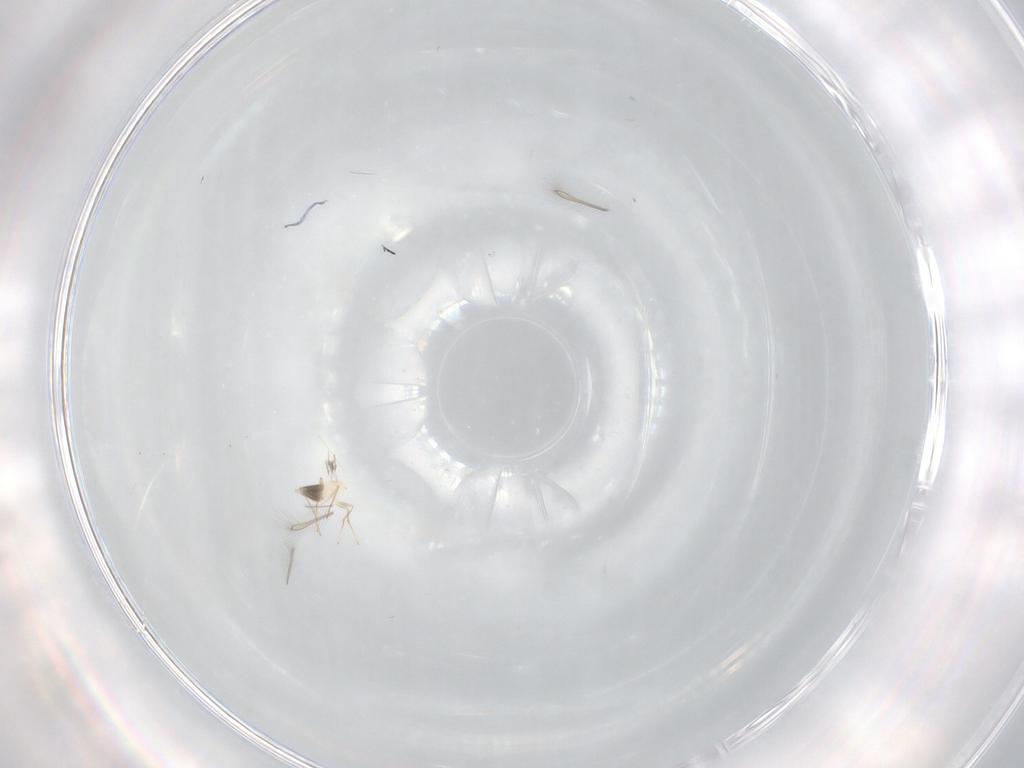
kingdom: Animalia
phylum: Arthropoda
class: Insecta
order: Hymenoptera
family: Mymaridae
